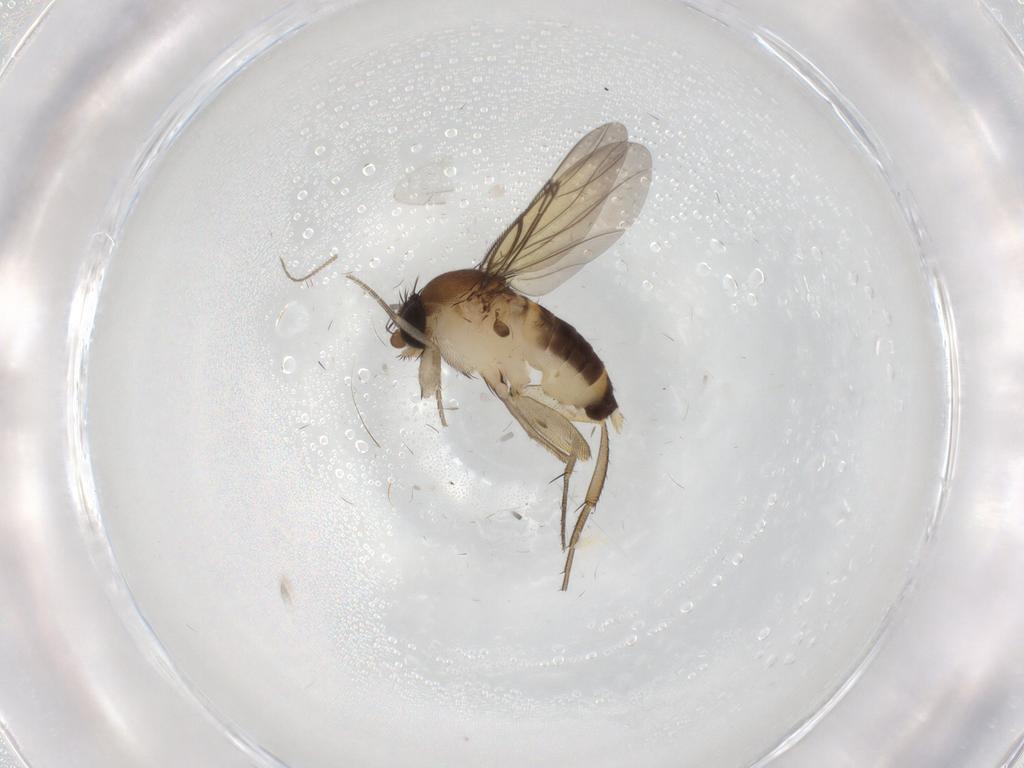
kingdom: Animalia
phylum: Arthropoda
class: Insecta
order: Diptera
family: Ceratopogonidae
